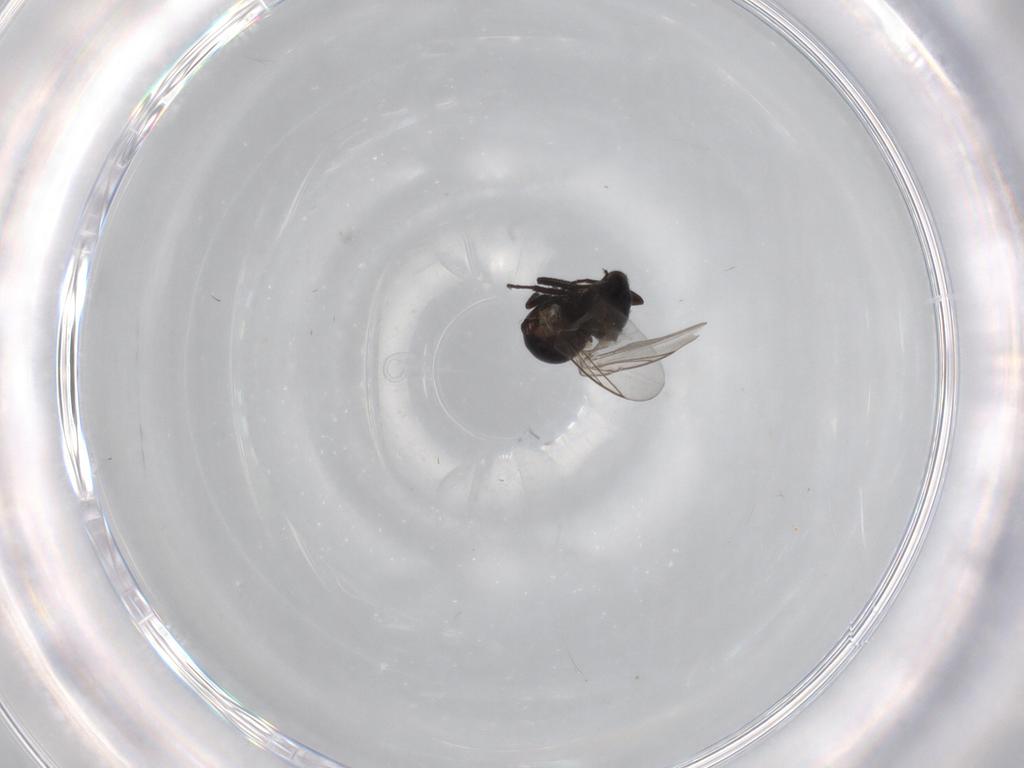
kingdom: Animalia
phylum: Arthropoda
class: Insecta
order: Diptera
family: Agromyzidae
